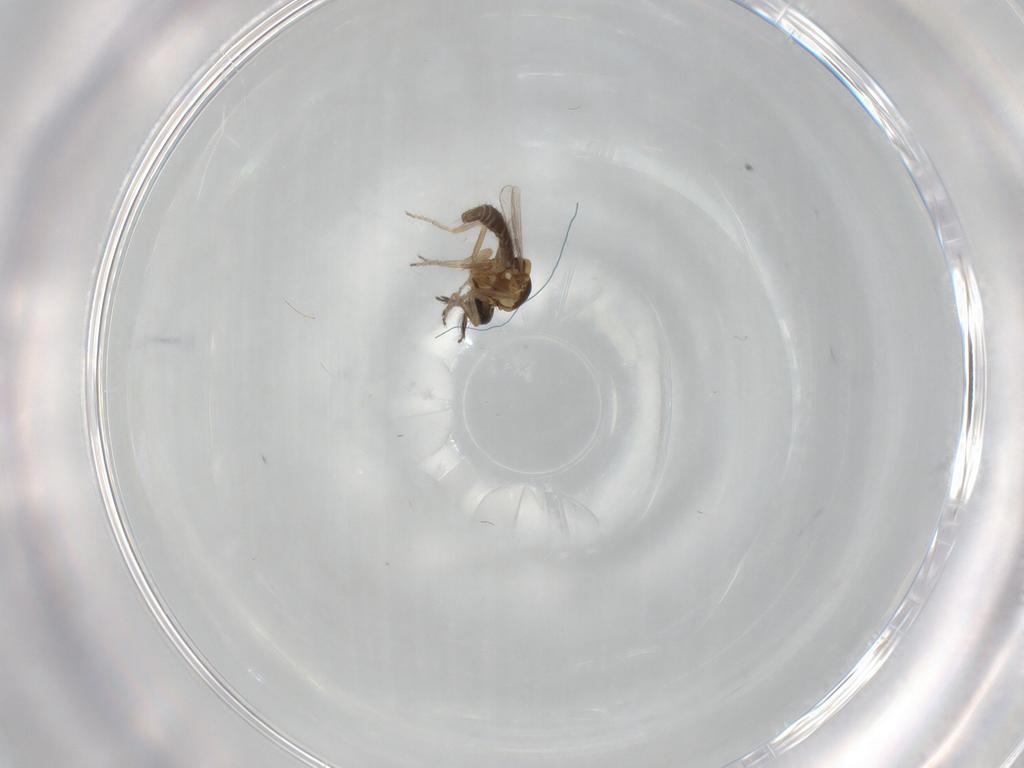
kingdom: Animalia
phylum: Arthropoda
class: Insecta
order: Diptera
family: Ceratopogonidae
